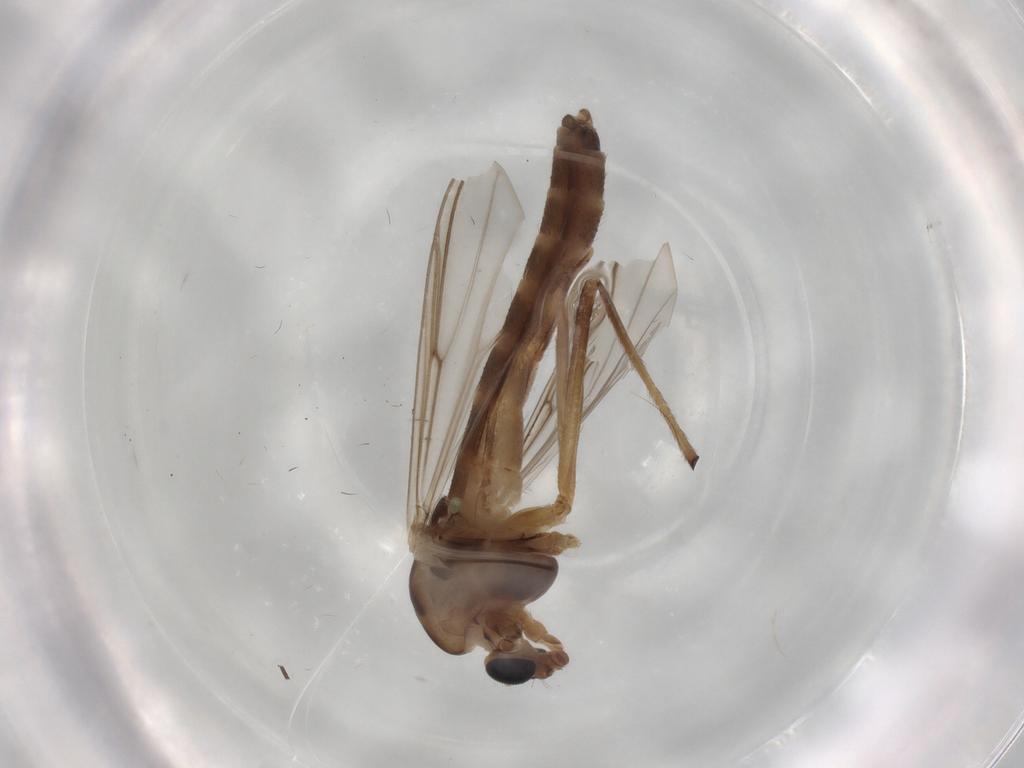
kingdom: Animalia
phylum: Arthropoda
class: Insecta
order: Diptera
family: Chironomidae
